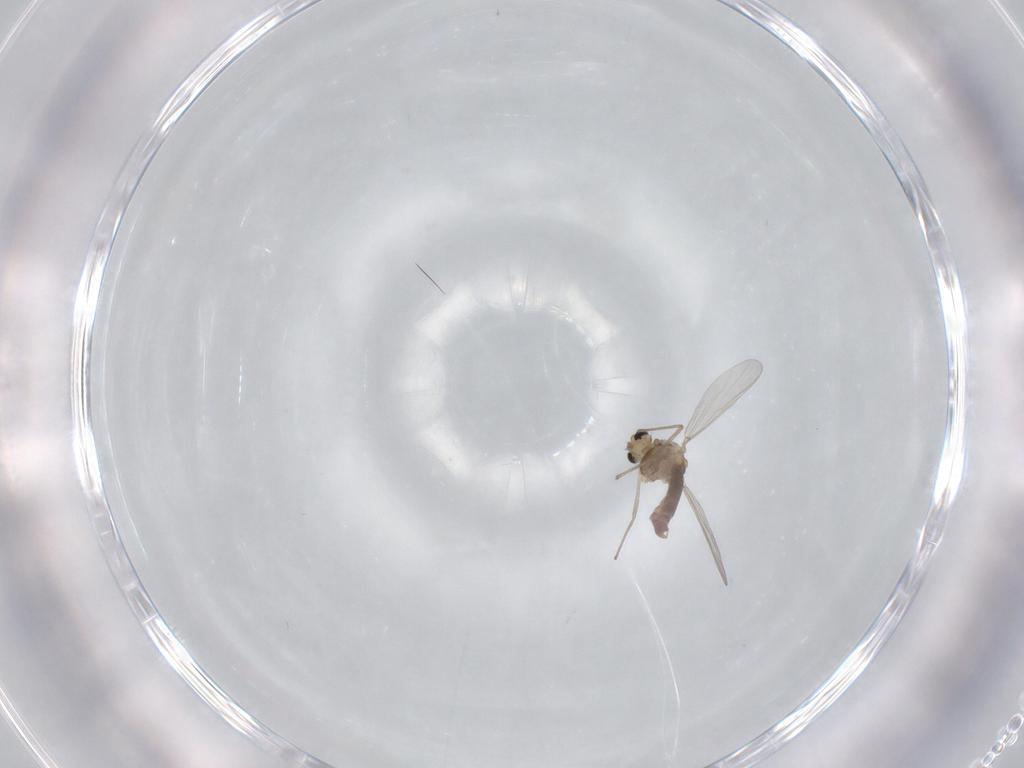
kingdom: Animalia
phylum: Arthropoda
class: Insecta
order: Diptera
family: Chironomidae
